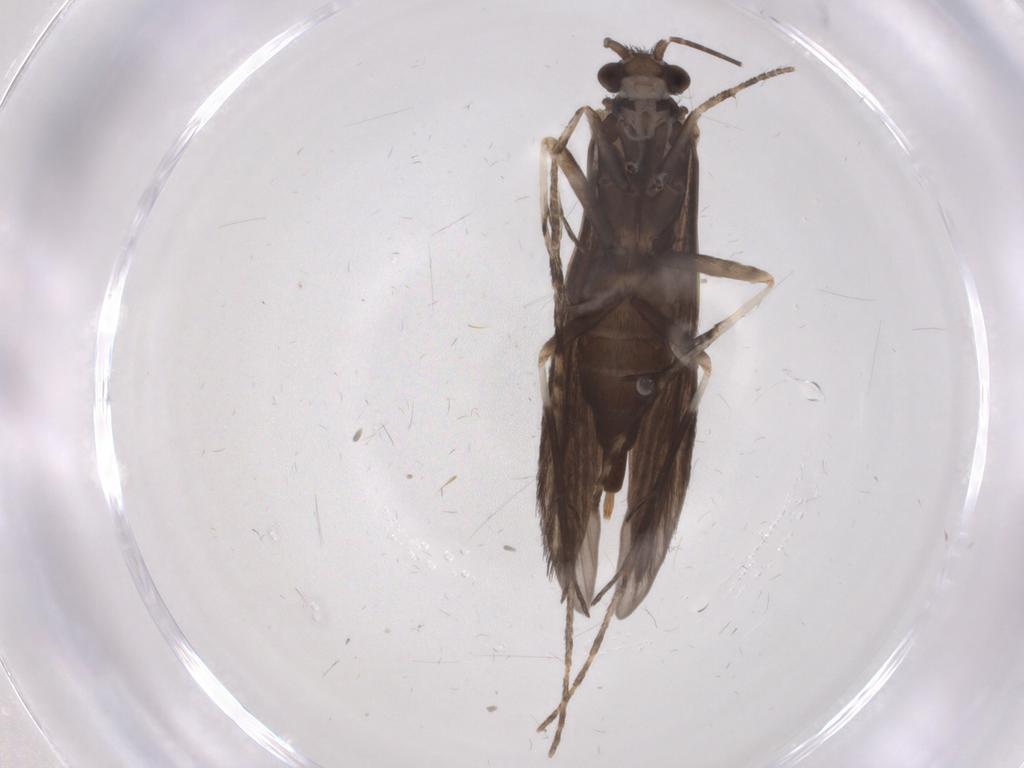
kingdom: Animalia
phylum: Arthropoda
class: Insecta
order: Trichoptera
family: Xiphocentronidae
